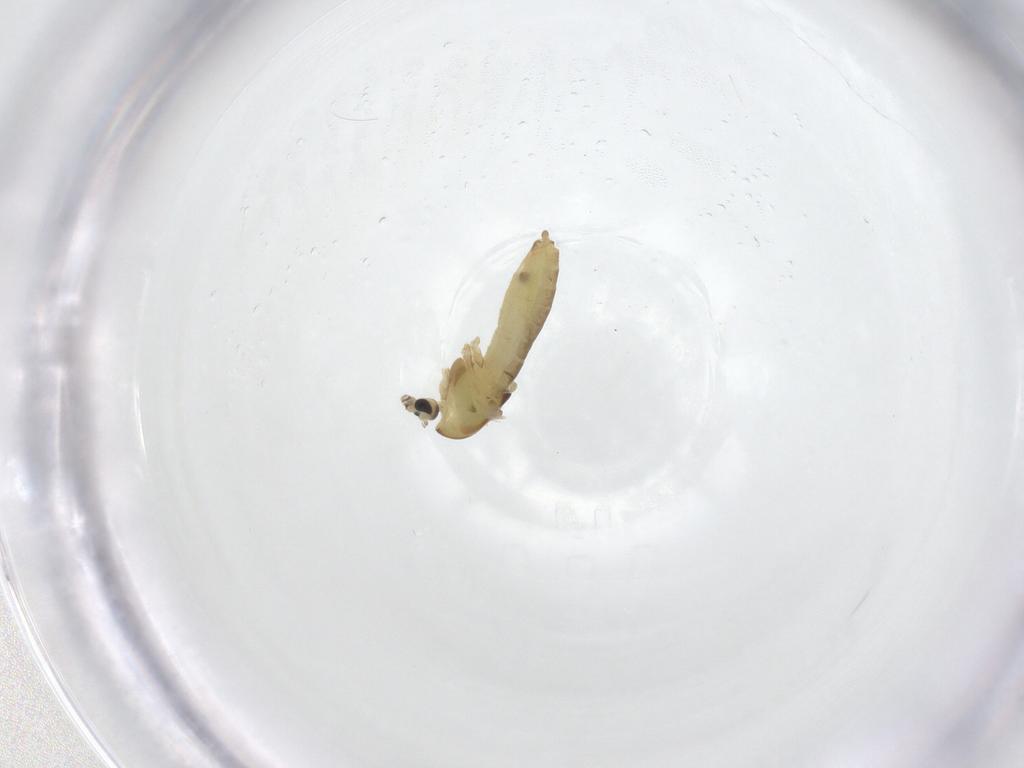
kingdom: Animalia
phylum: Arthropoda
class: Insecta
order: Diptera
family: Chironomidae
